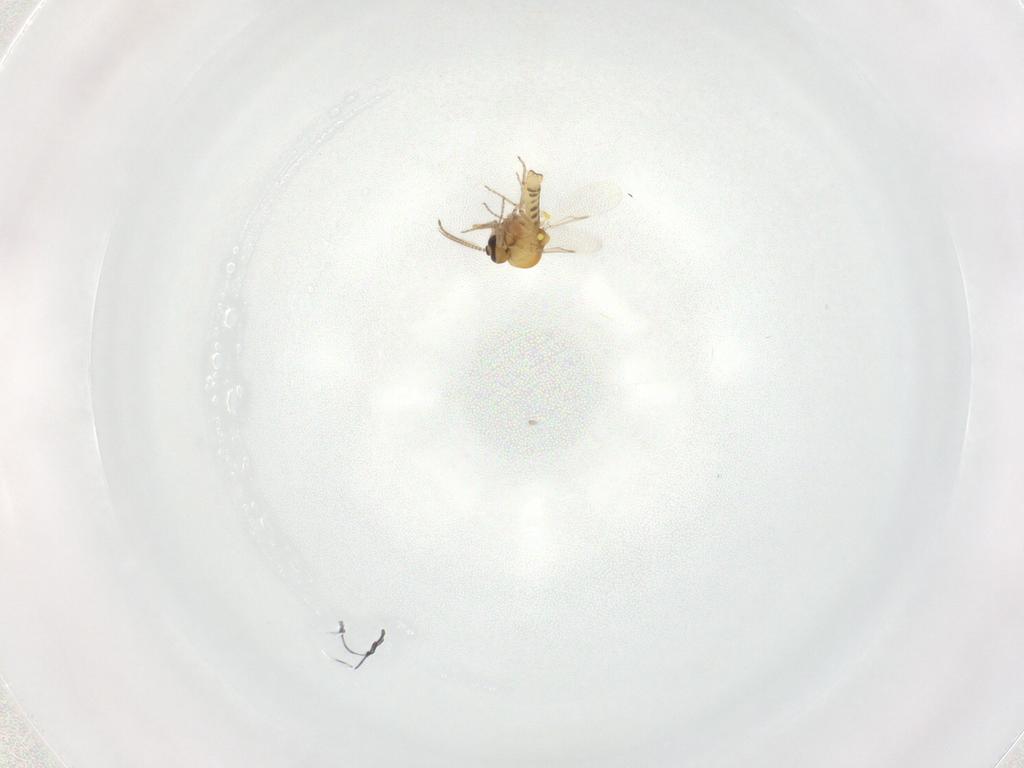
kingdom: Animalia
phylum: Arthropoda
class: Insecta
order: Diptera
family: Ceratopogonidae
